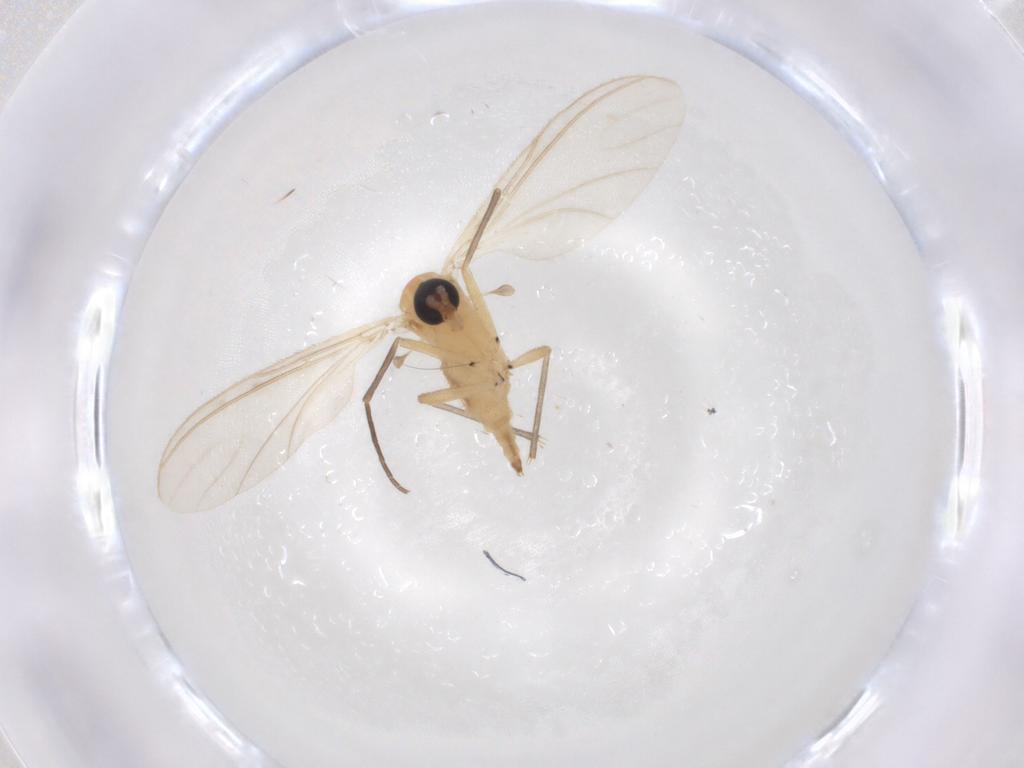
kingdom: Animalia
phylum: Arthropoda
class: Insecta
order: Diptera
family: Sciaridae
